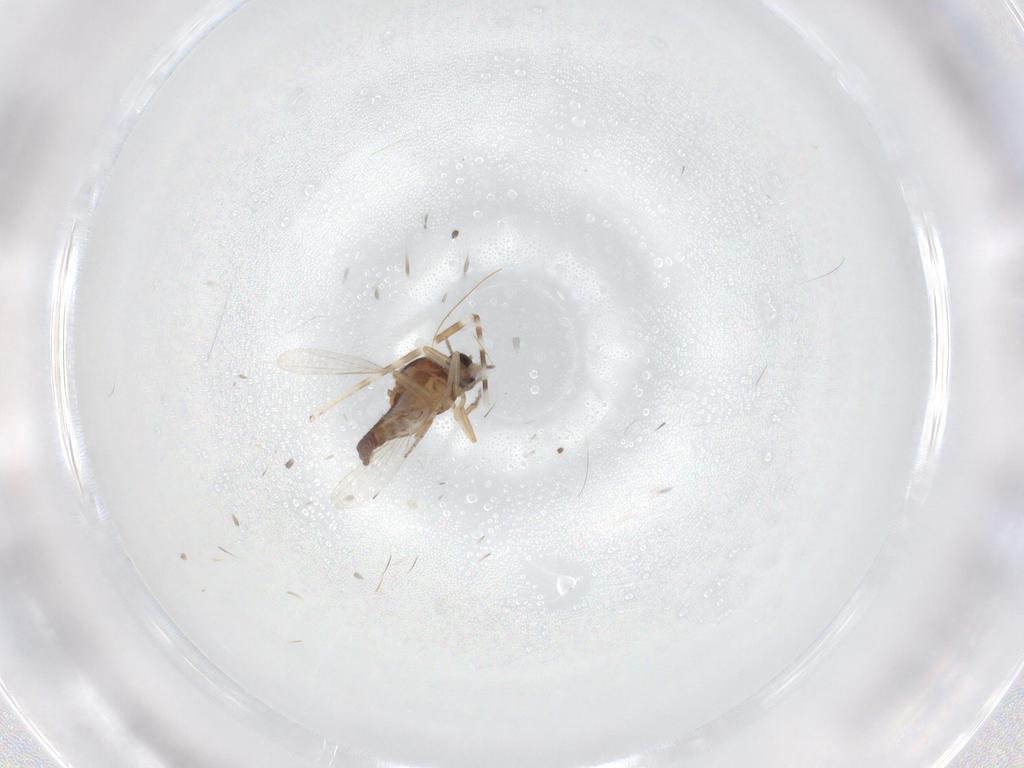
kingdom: Animalia
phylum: Arthropoda
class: Insecta
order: Diptera
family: Ceratopogonidae
